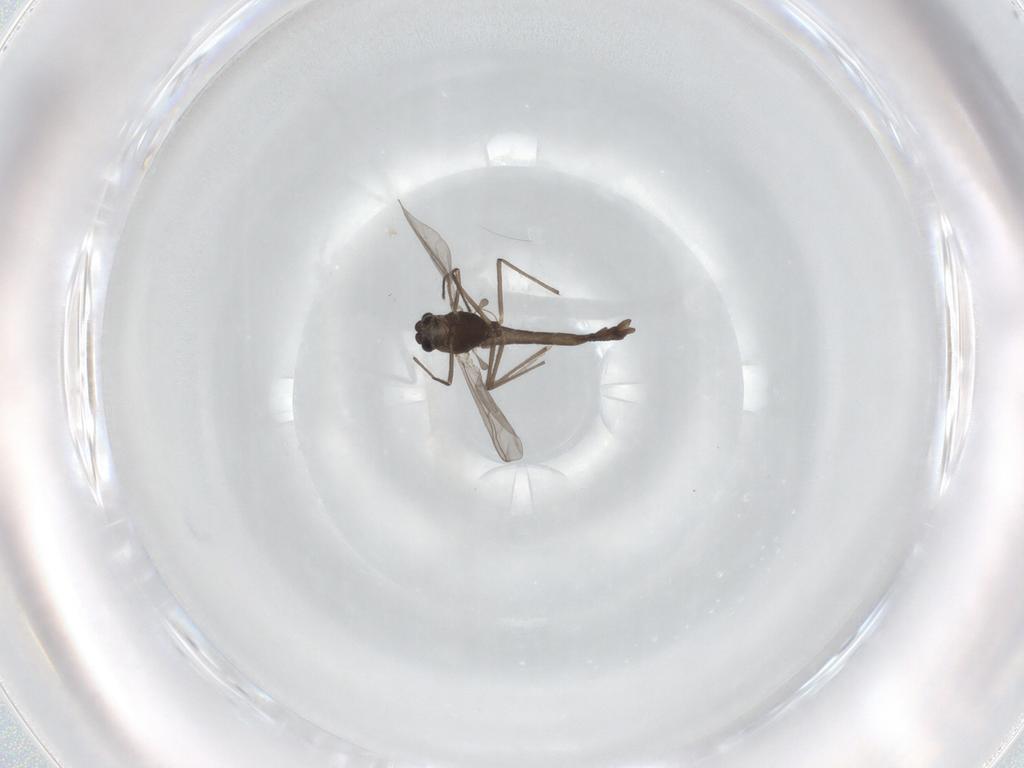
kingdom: Animalia
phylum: Arthropoda
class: Insecta
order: Diptera
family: Chironomidae
